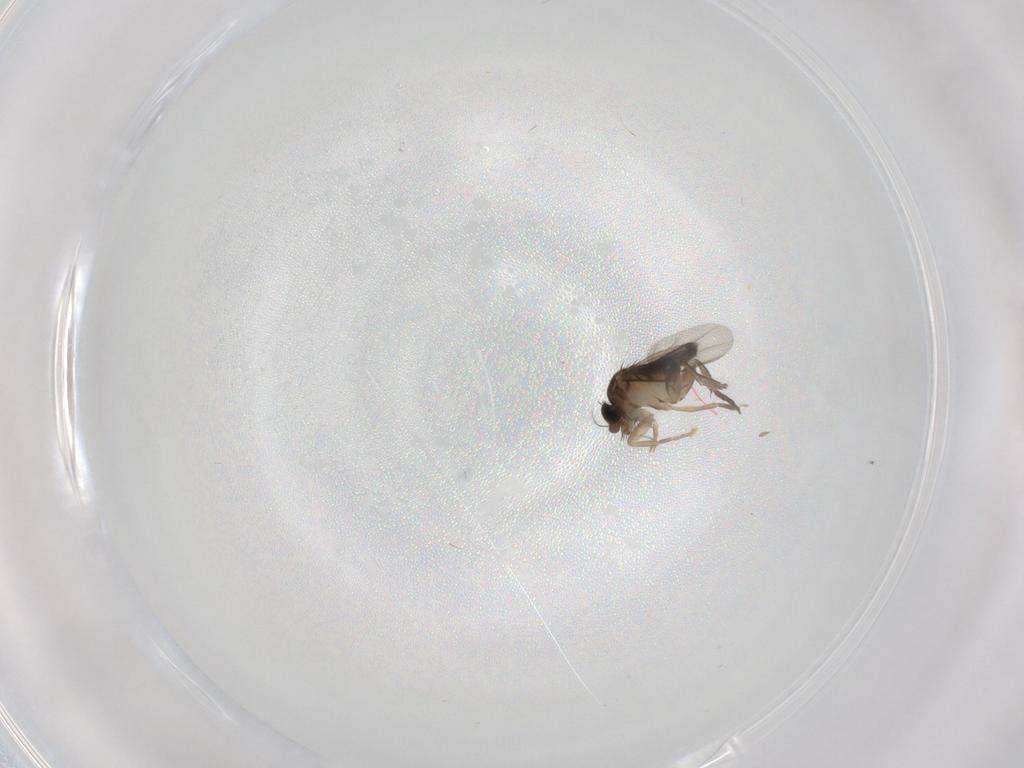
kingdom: Animalia
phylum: Arthropoda
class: Insecta
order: Diptera
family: Phoridae
